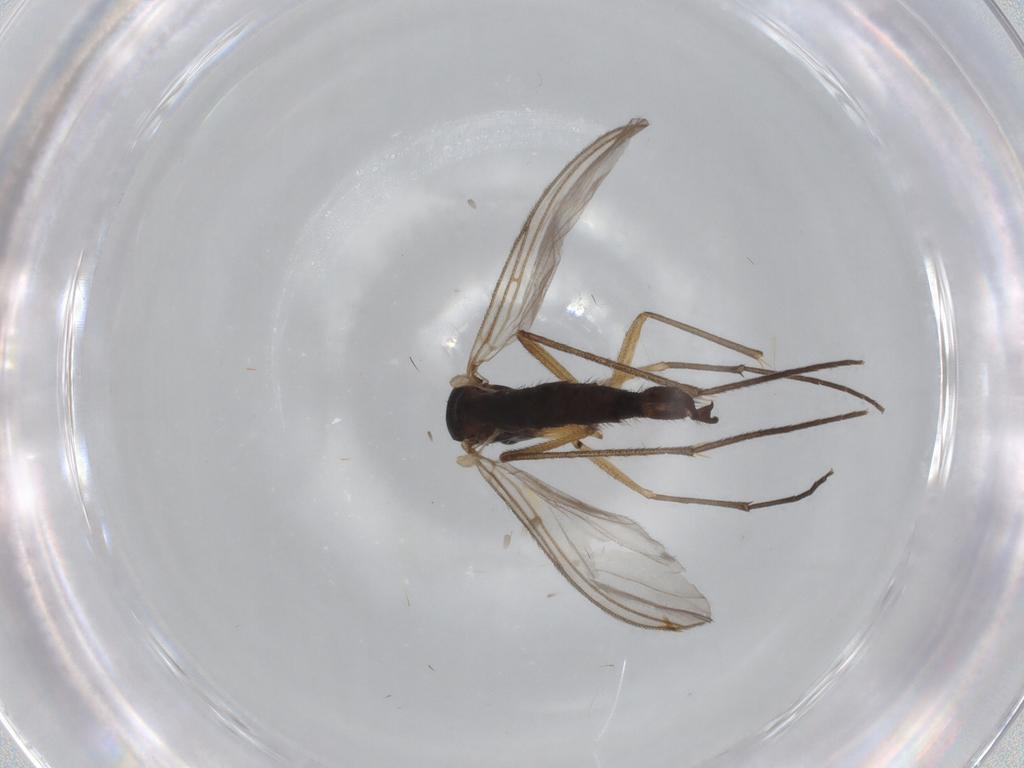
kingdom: Animalia
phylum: Arthropoda
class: Insecta
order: Diptera
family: Sciaridae
